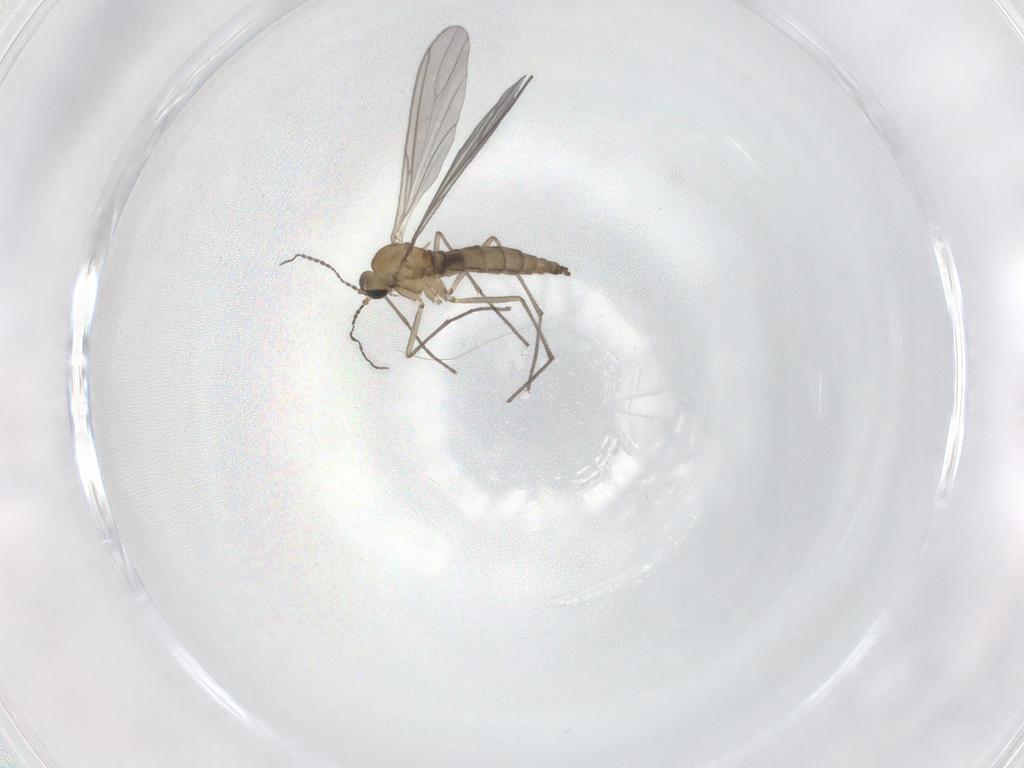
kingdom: Animalia
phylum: Arthropoda
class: Insecta
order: Diptera
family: Sciaridae
